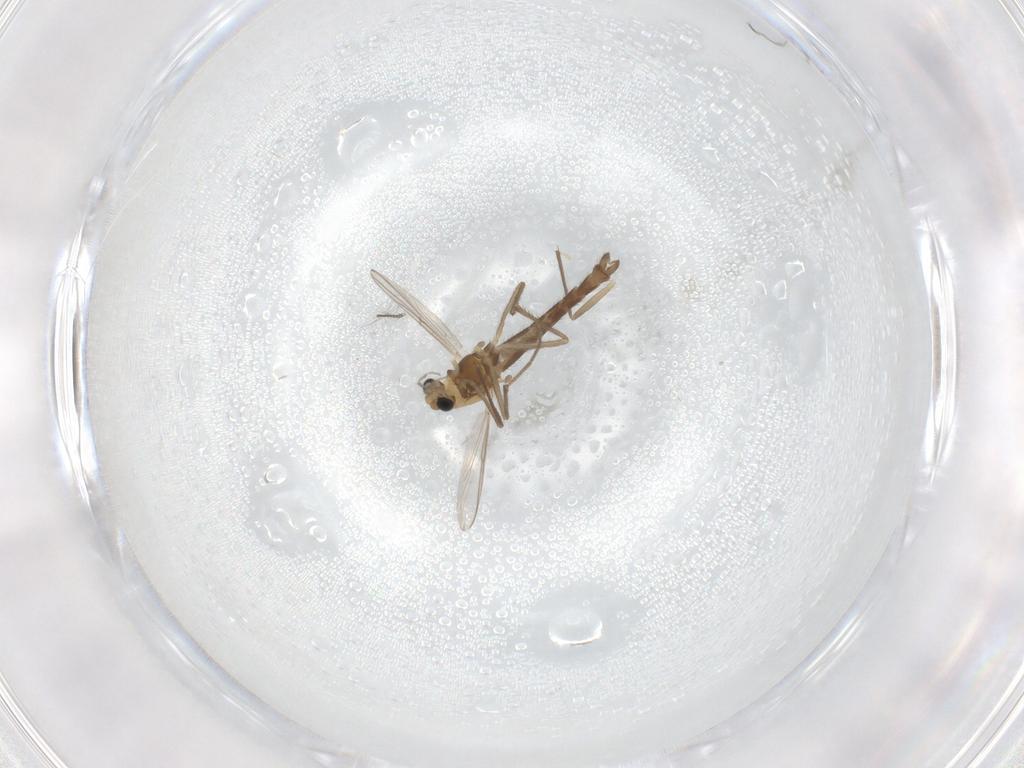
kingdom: Animalia
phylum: Arthropoda
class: Insecta
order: Diptera
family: Chironomidae
